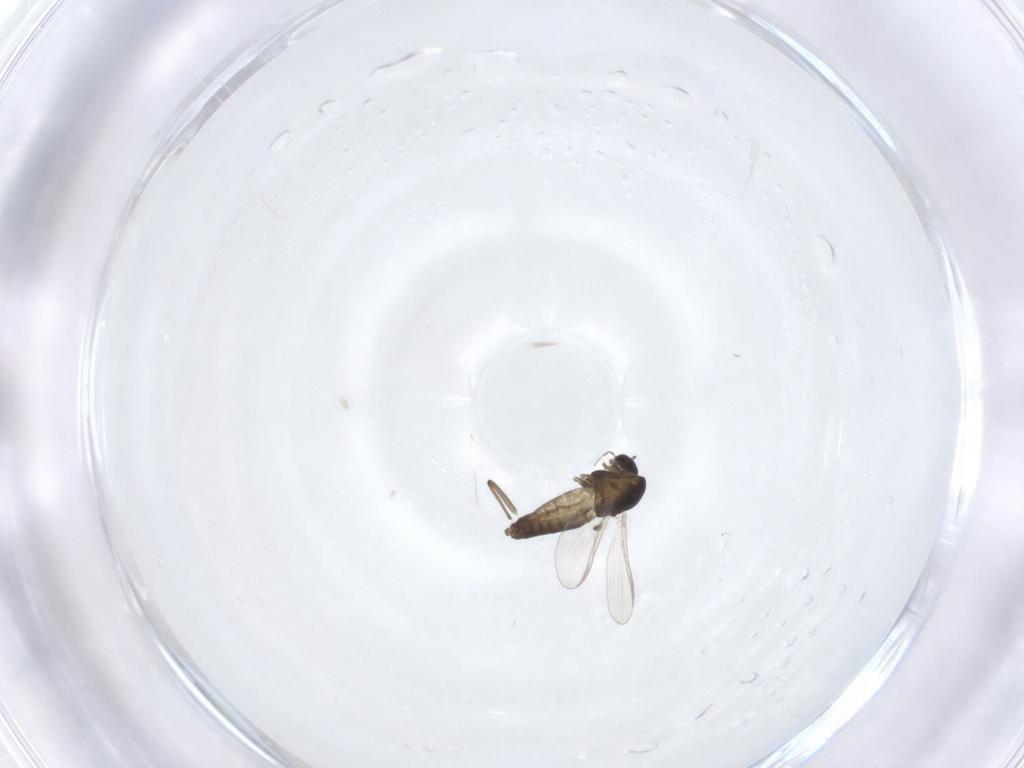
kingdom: Animalia
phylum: Arthropoda
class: Insecta
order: Diptera
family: Chironomidae
